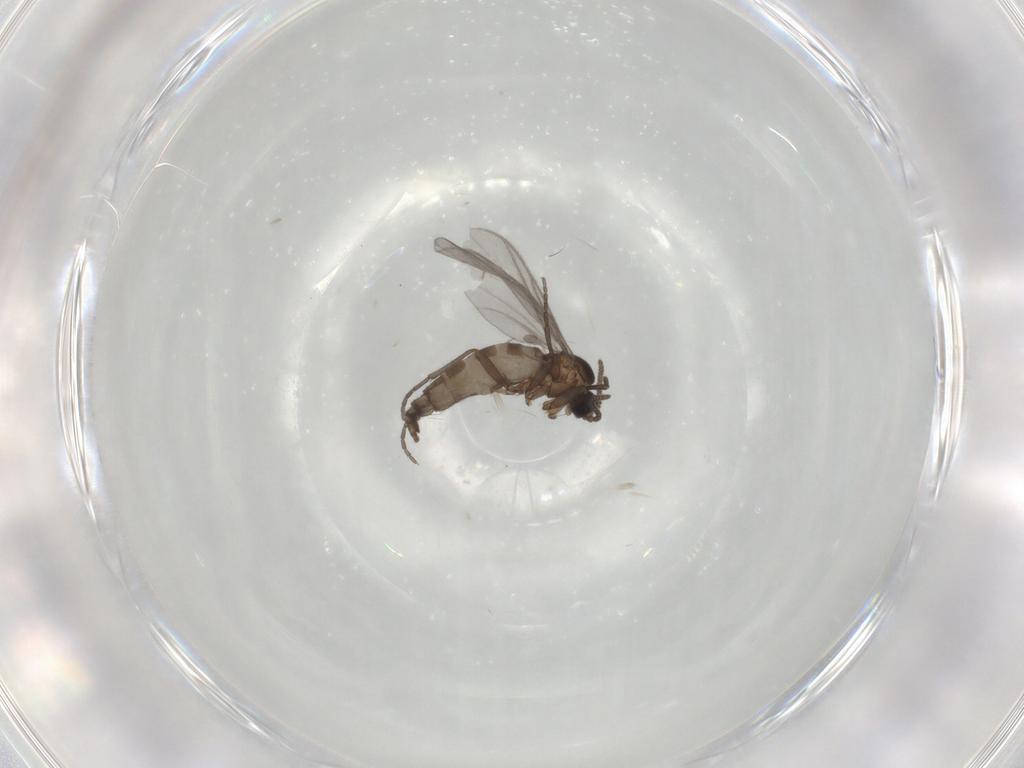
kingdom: Animalia
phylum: Arthropoda
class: Insecta
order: Diptera
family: Sciaridae
